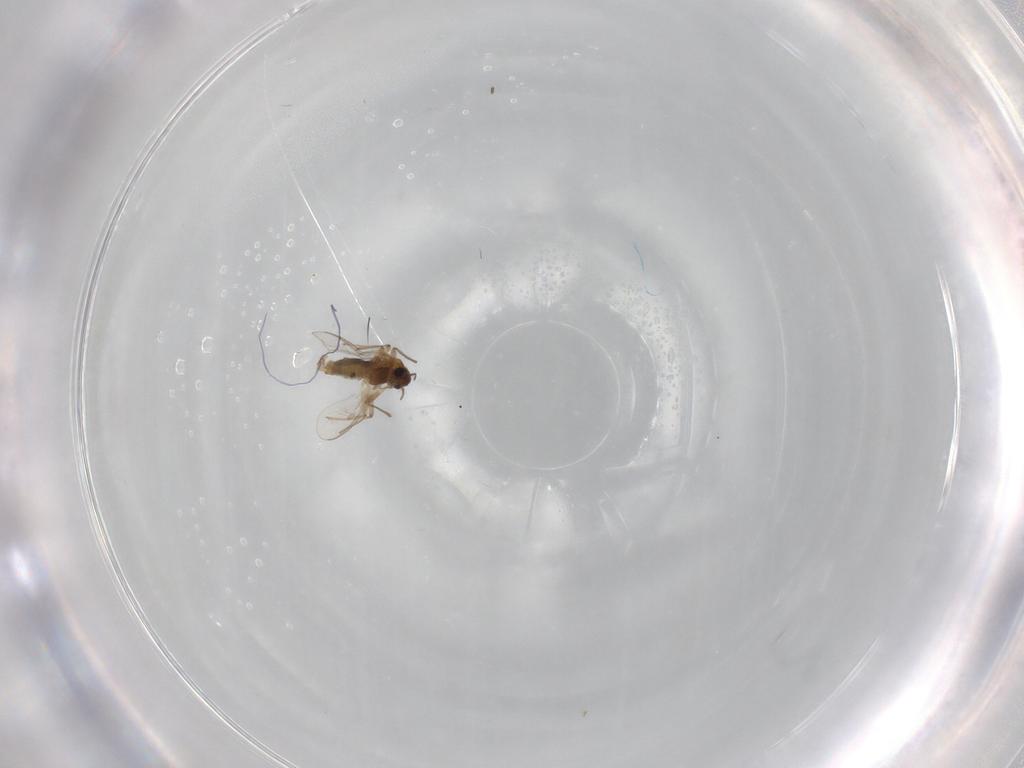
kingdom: Animalia
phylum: Arthropoda
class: Insecta
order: Diptera
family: Chironomidae
